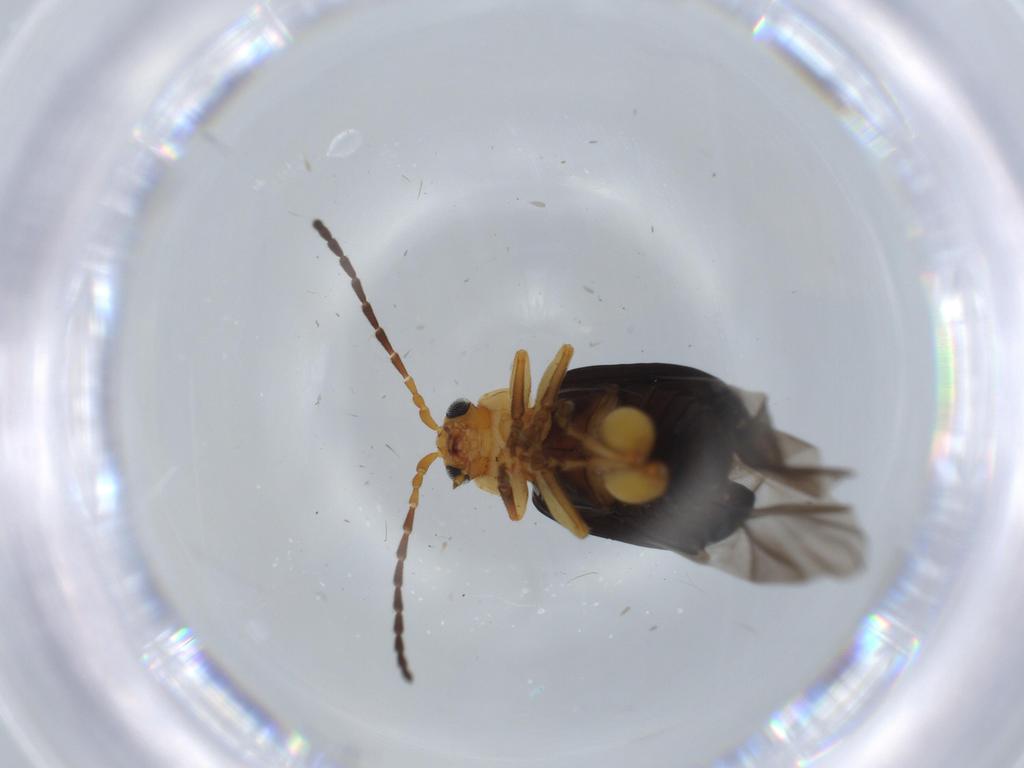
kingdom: Animalia
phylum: Arthropoda
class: Insecta
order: Coleoptera
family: Chrysomelidae
